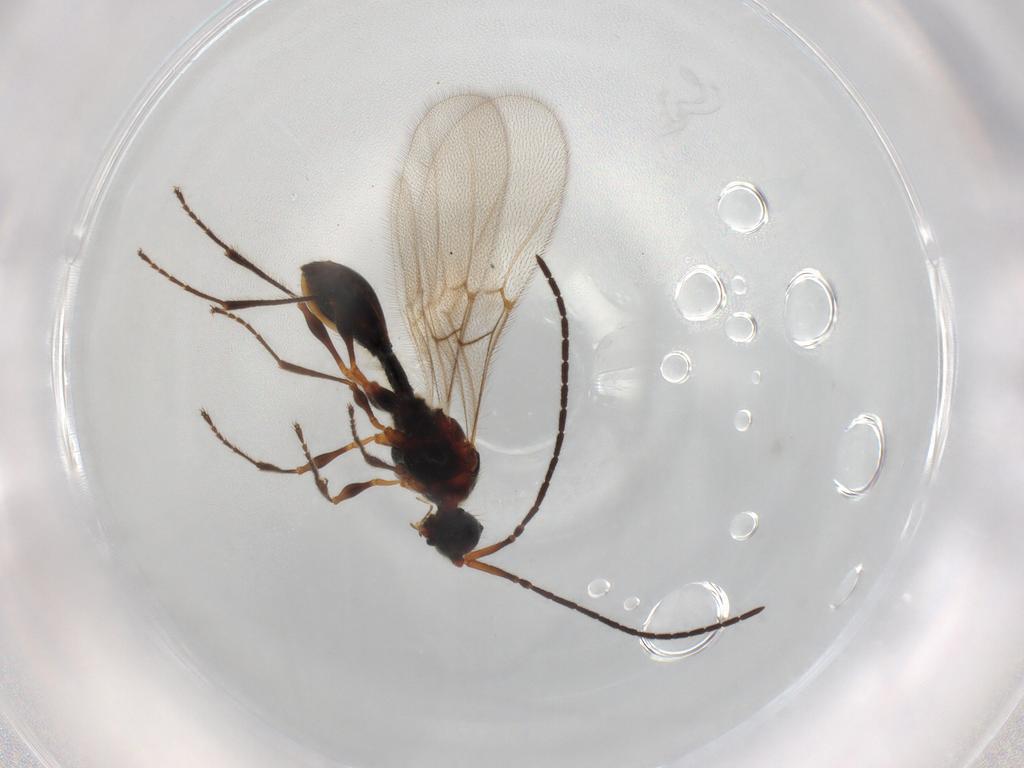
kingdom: Animalia
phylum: Arthropoda
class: Insecta
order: Hymenoptera
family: Diapriidae
